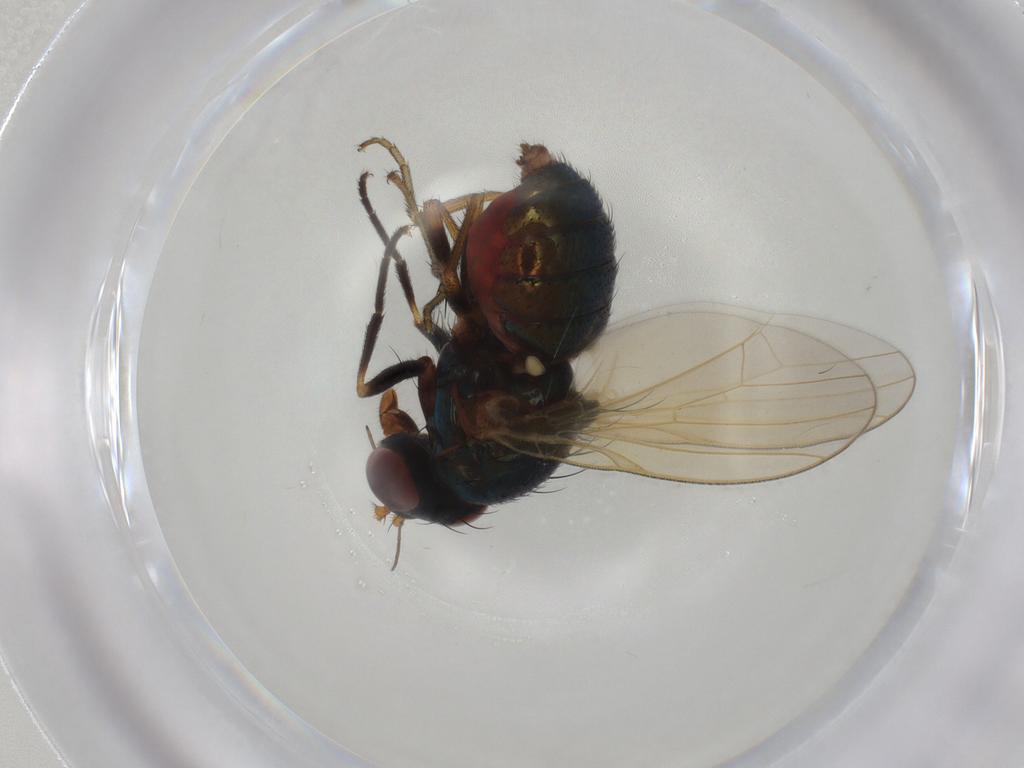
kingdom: Animalia
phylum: Arthropoda
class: Insecta
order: Diptera
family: Lauxaniidae
